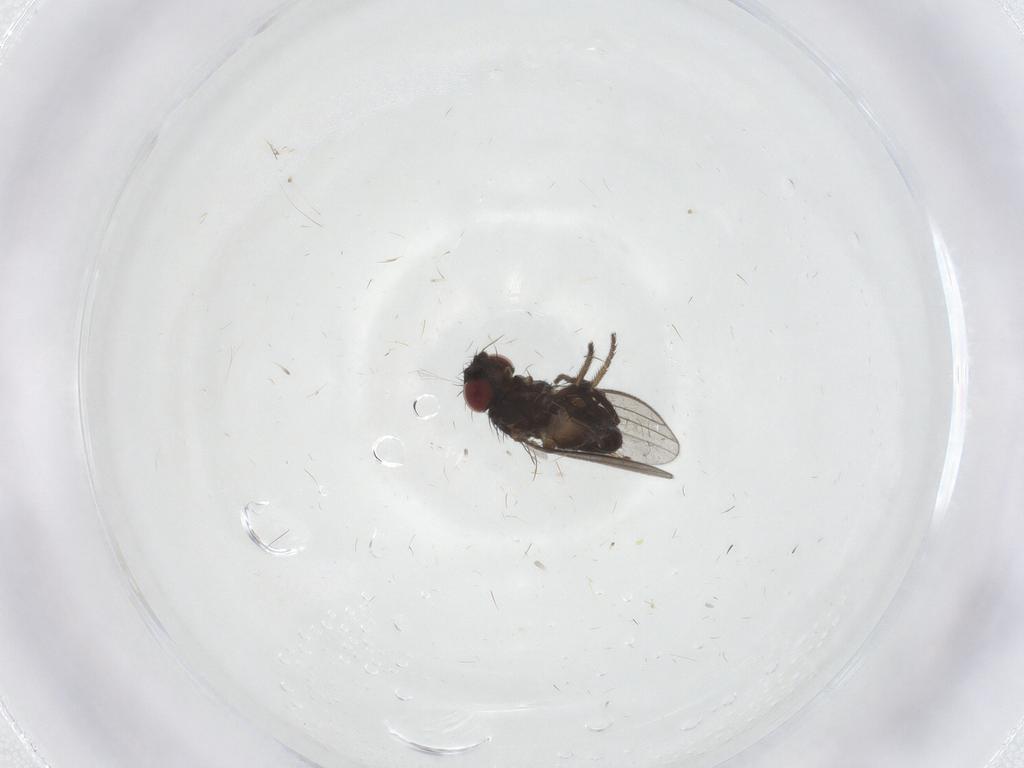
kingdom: Animalia
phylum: Arthropoda
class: Insecta
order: Diptera
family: Milichiidae
